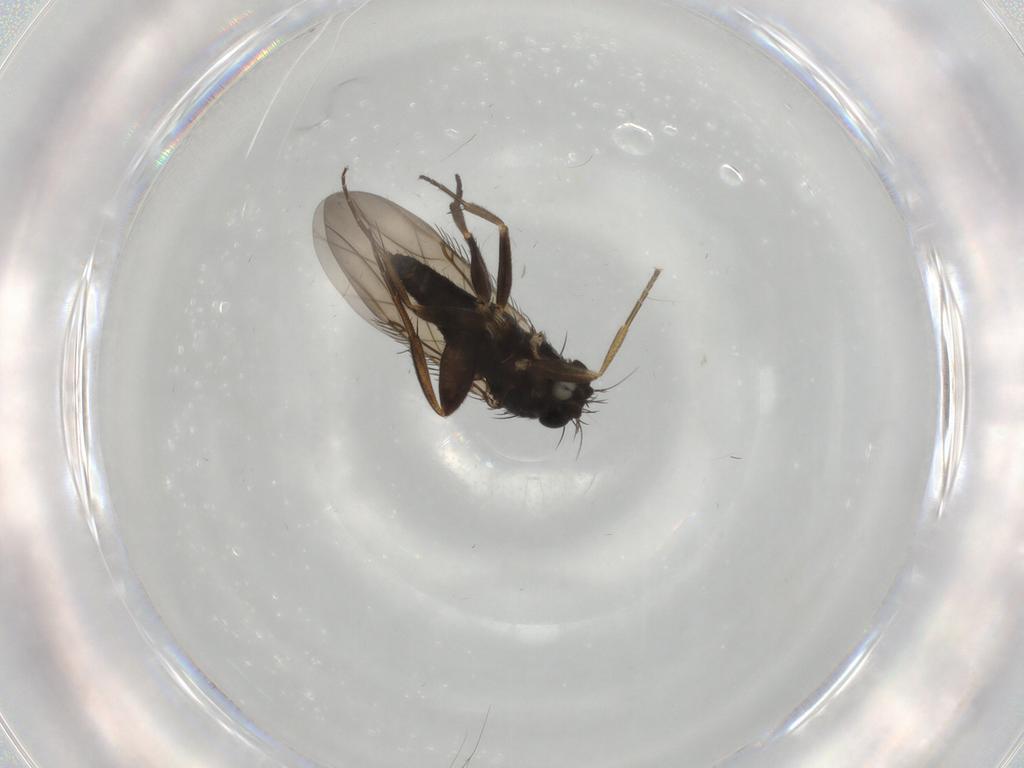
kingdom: Animalia
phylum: Arthropoda
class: Insecta
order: Diptera
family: Phoridae
